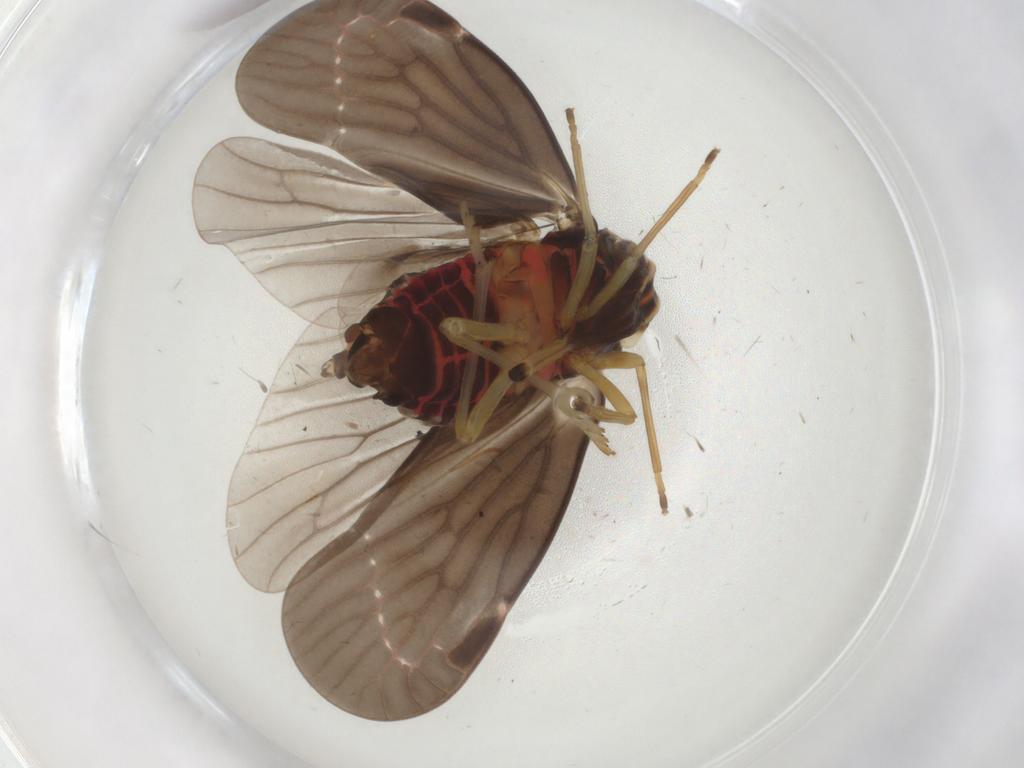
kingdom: Animalia
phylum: Arthropoda
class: Insecta
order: Hemiptera
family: Derbidae
